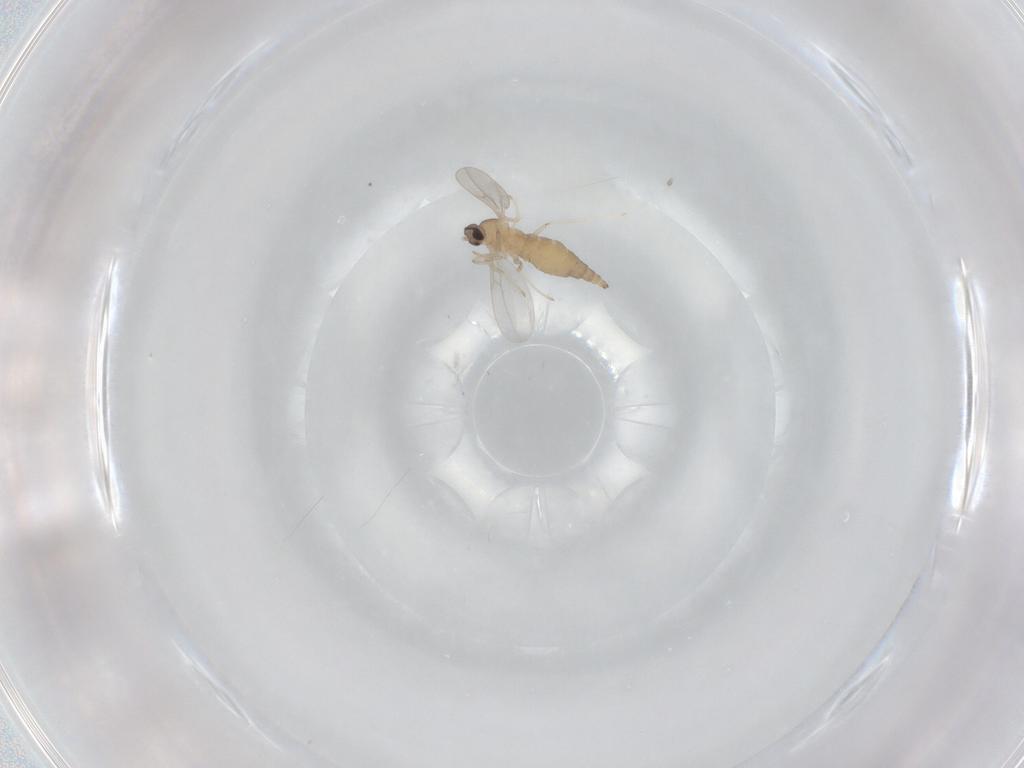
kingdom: Animalia
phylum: Arthropoda
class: Insecta
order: Diptera
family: Cecidomyiidae
